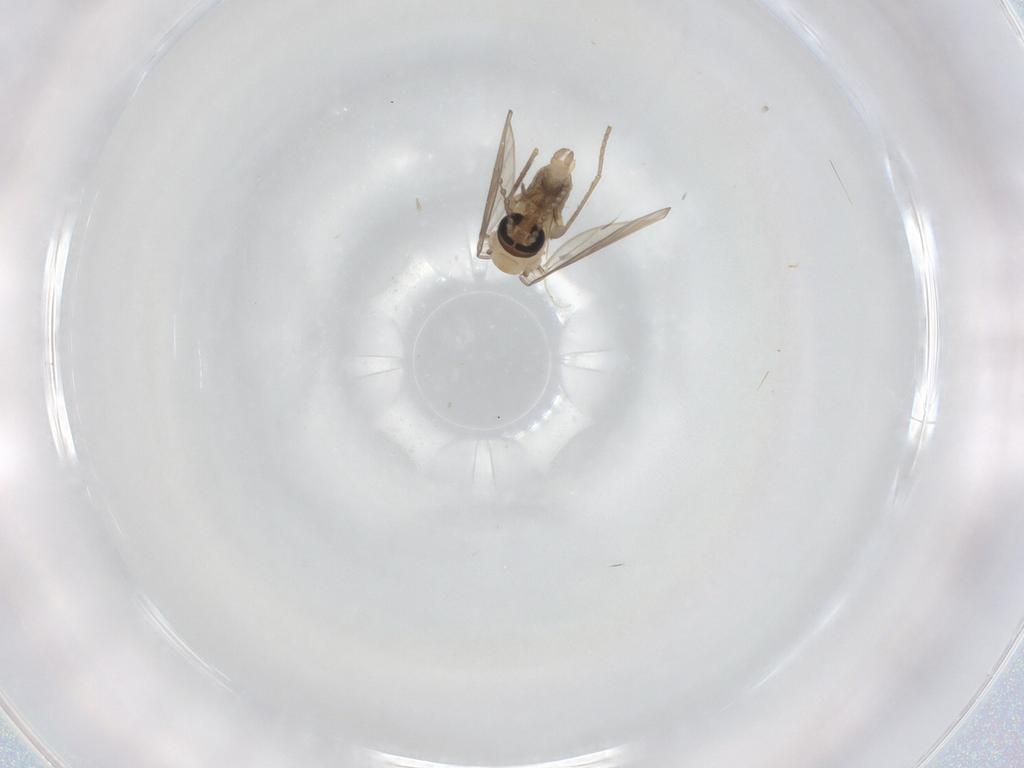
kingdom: Animalia
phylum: Arthropoda
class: Insecta
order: Diptera
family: Psychodidae
